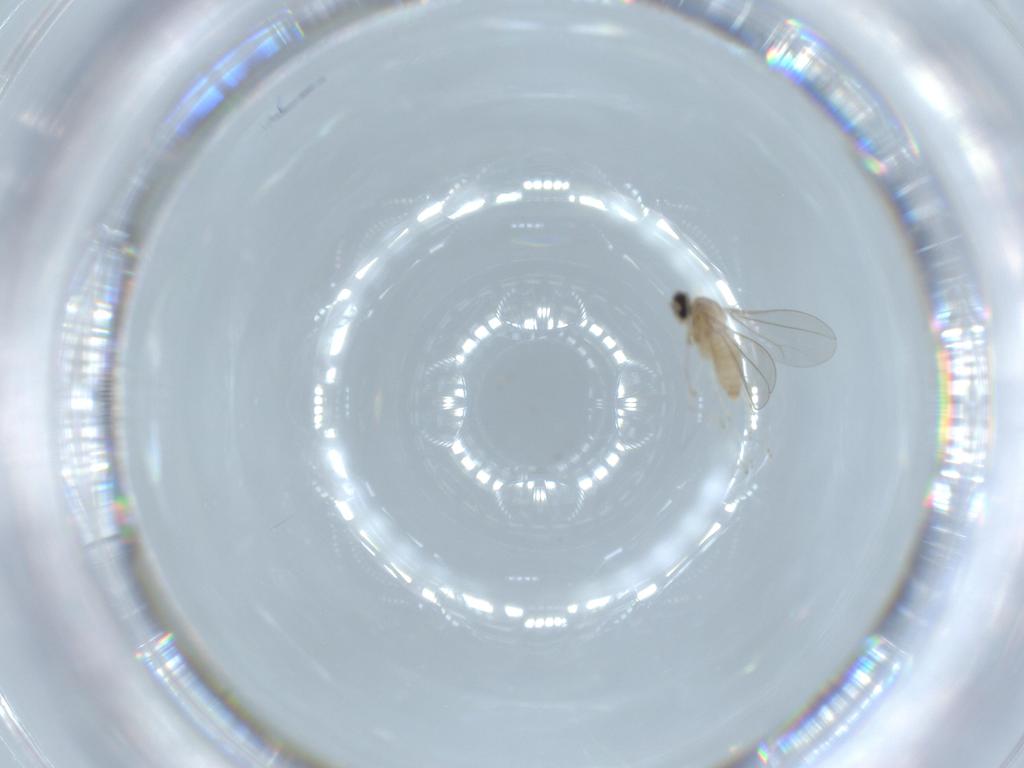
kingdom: Animalia
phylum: Arthropoda
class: Insecta
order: Diptera
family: Cecidomyiidae
